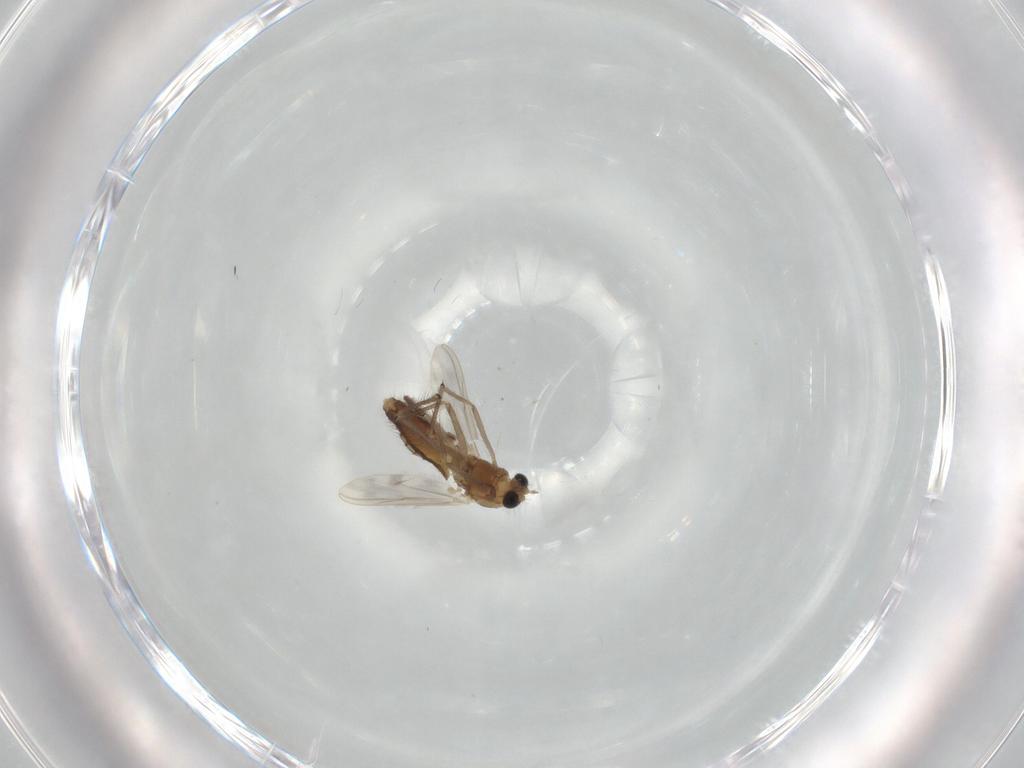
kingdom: Animalia
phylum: Arthropoda
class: Insecta
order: Diptera
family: Chironomidae
